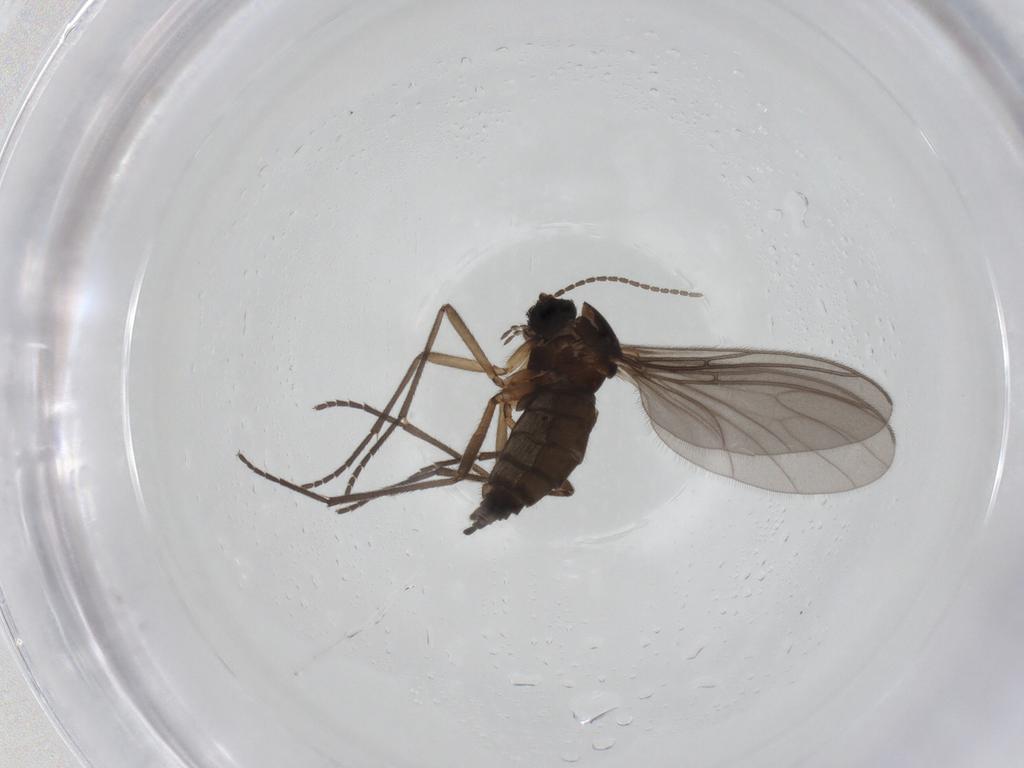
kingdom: Animalia
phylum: Arthropoda
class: Insecta
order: Diptera
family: Sciaridae
